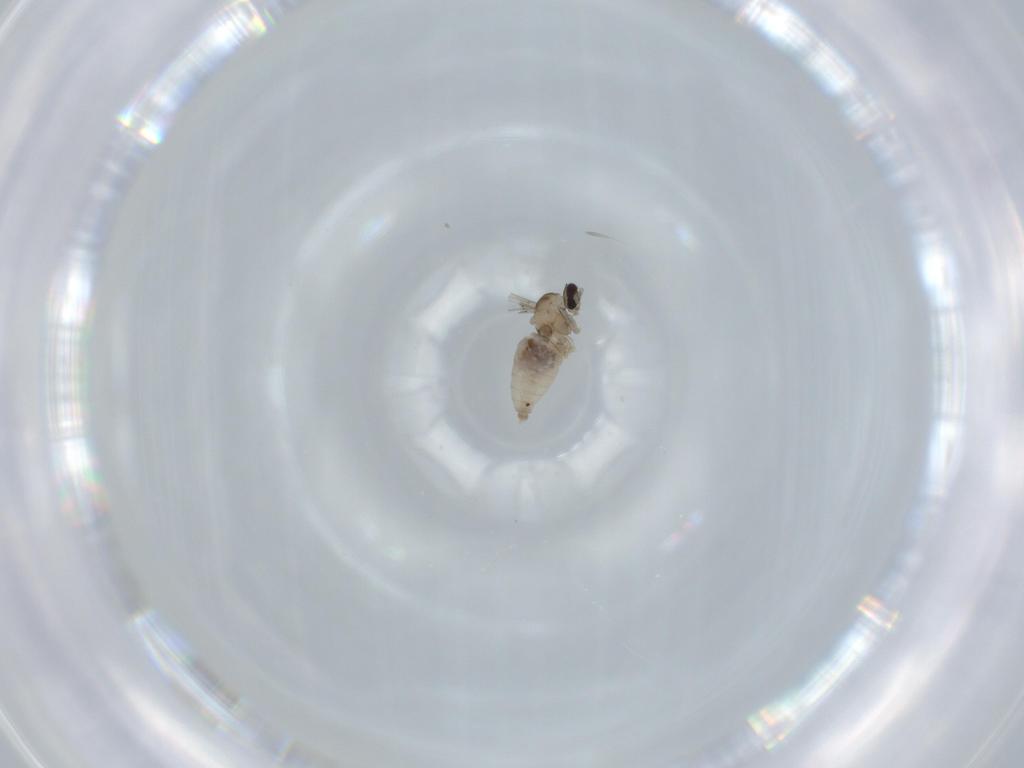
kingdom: Animalia
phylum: Arthropoda
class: Insecta
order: Diptera
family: Cecidomyiidae
